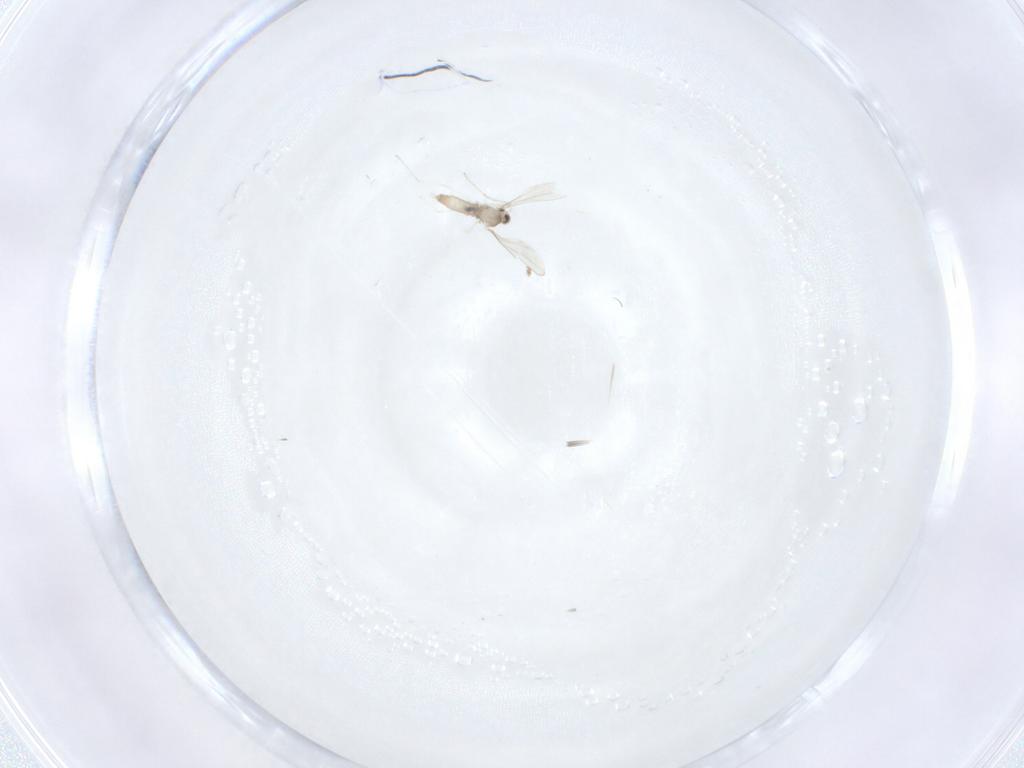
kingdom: Animalia
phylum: Arthropoda
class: Insecta
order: Diptera
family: Cecidomyiidae
